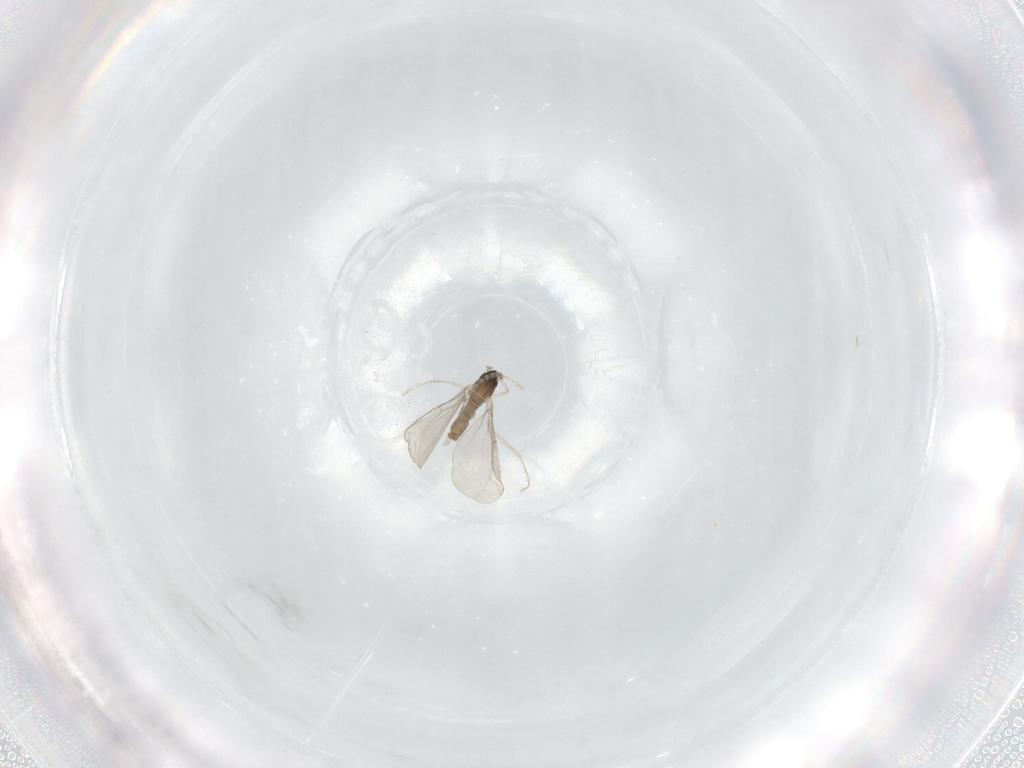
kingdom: Animalia
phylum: Arthropoda
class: Insecta
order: Diptera
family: Cecidomyiidae
